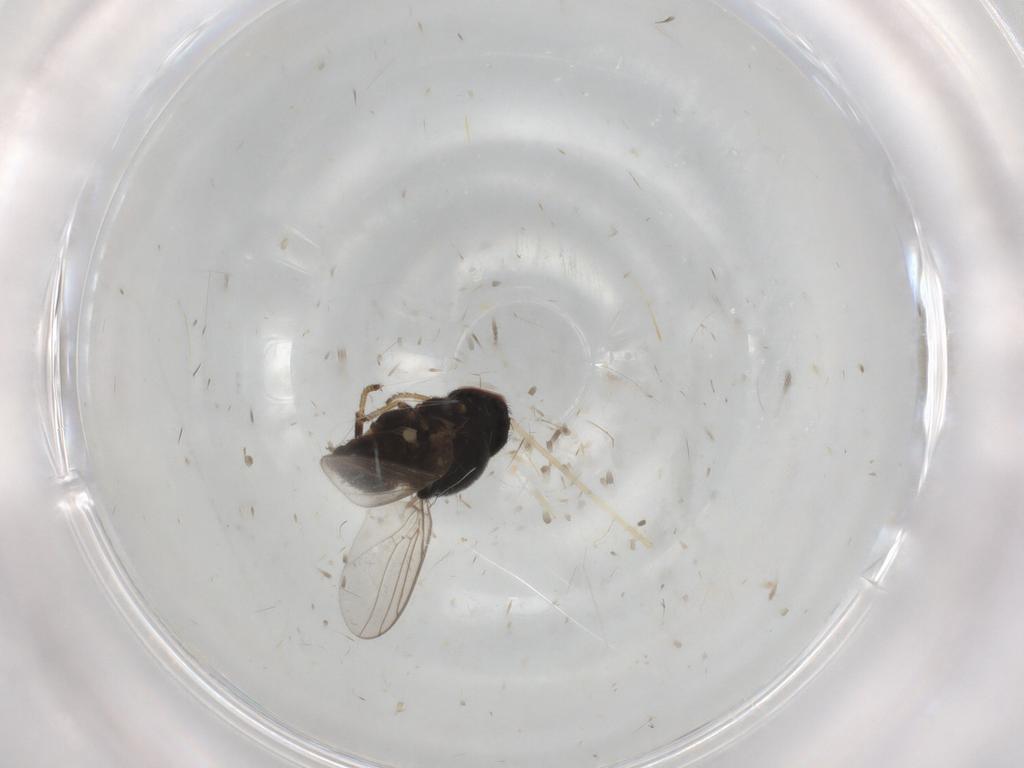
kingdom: Animalia
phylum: Arthropoda
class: Insecta
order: Diptera
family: Chloropidae
